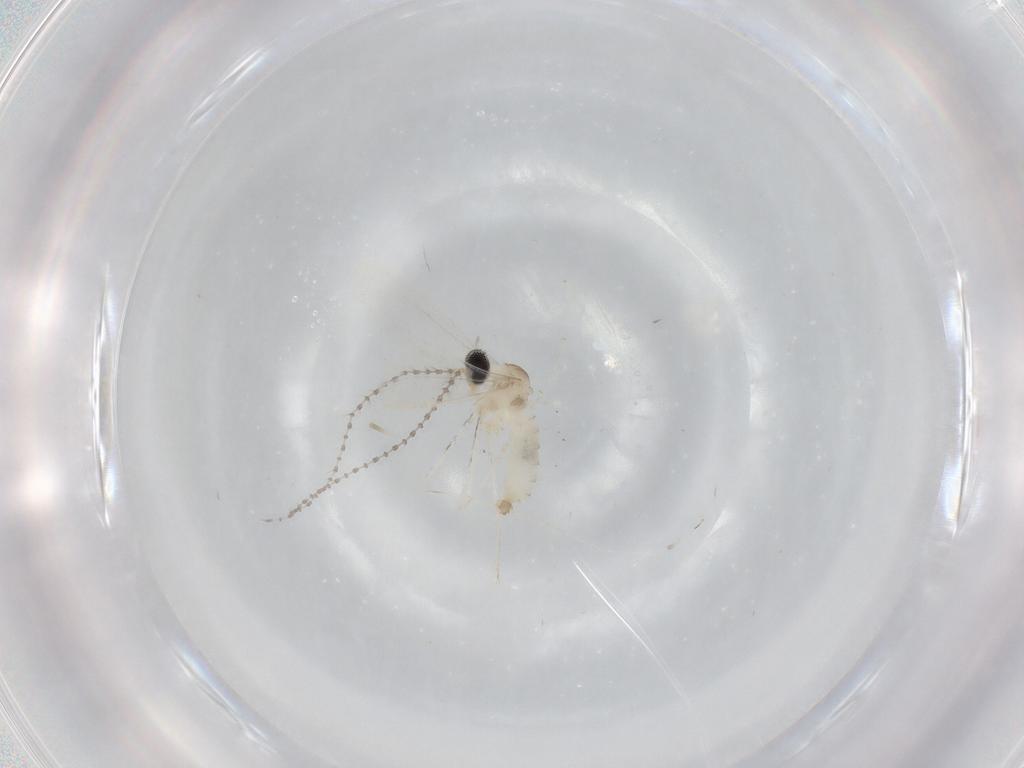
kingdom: Animalia
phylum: Arthropoda
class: Insecta
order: Diptera
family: Cecidomyiidae
